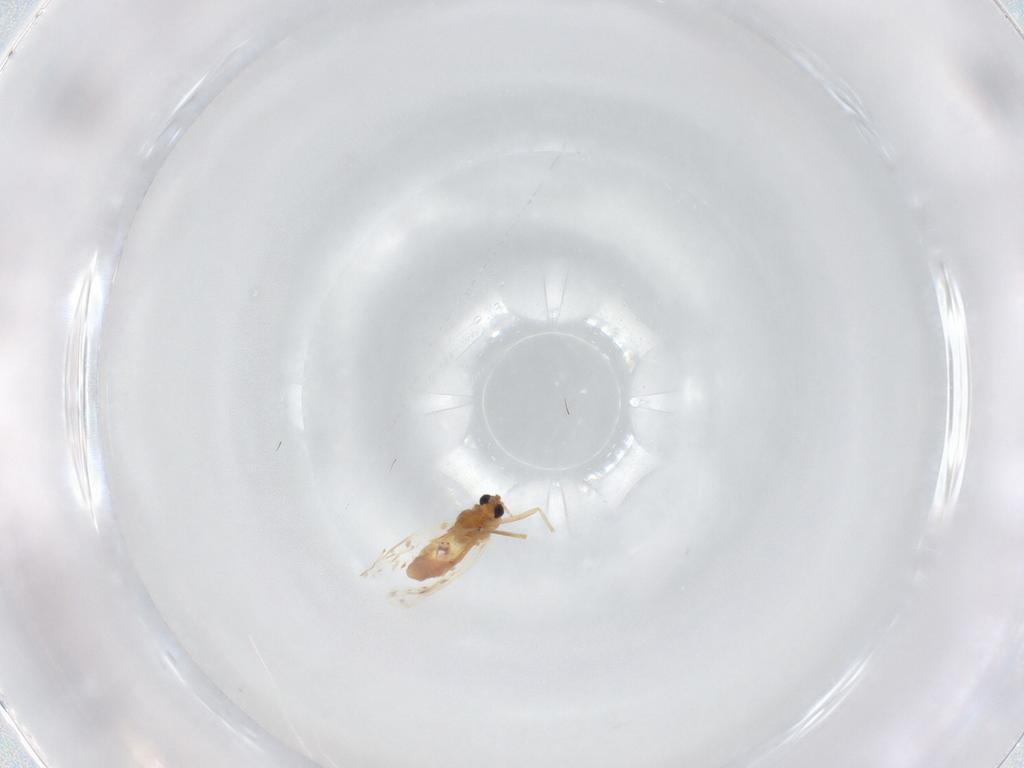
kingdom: Animalia
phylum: Arthropoda
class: Insecta
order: Diptera
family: Chironomidae
